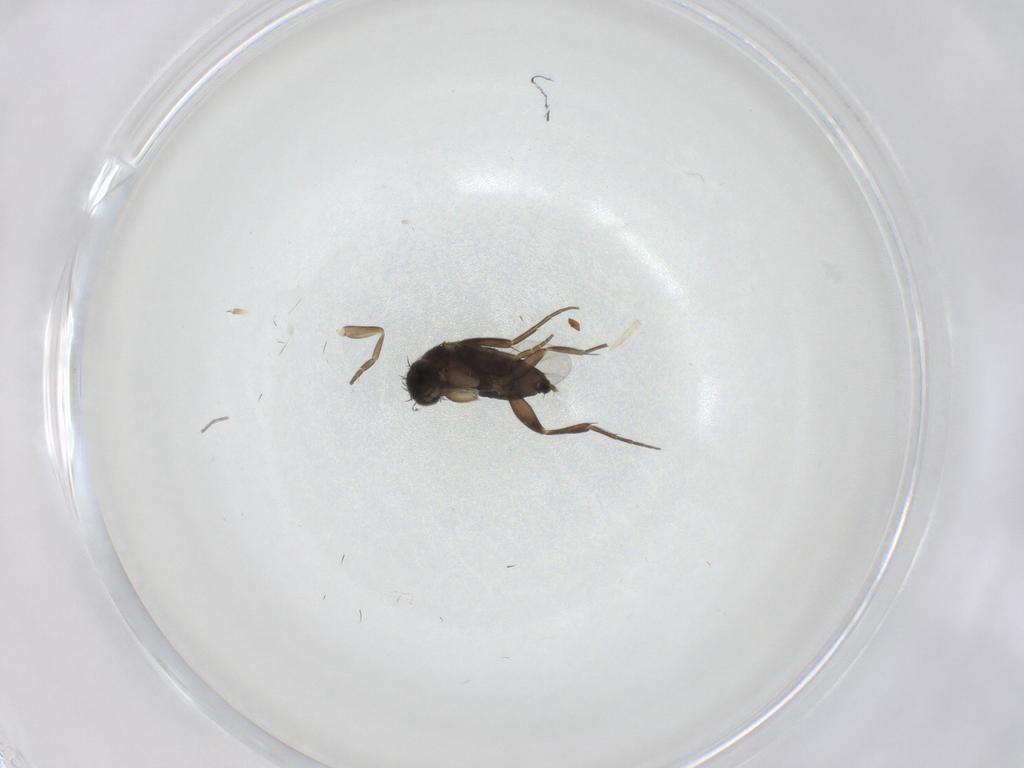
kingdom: Animalia
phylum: Arthropoda
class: Insecta
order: Diptera
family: Phoridae
